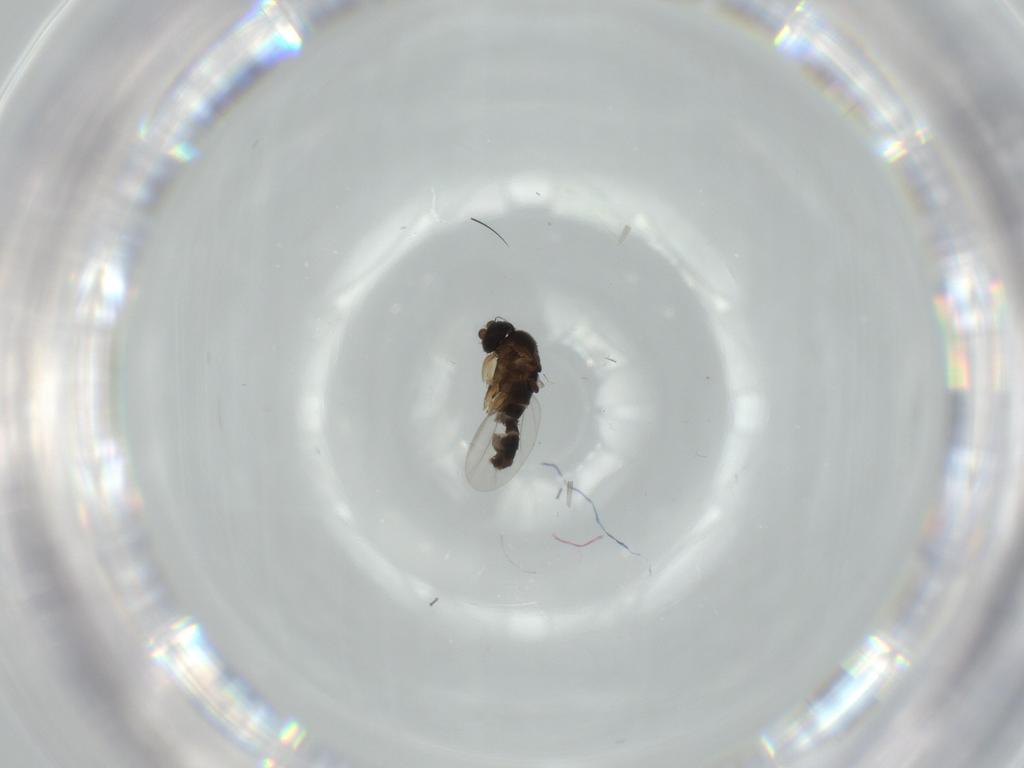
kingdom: Animalia
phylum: Arthropoda
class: Insecta
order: Diptera
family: Phoridae
